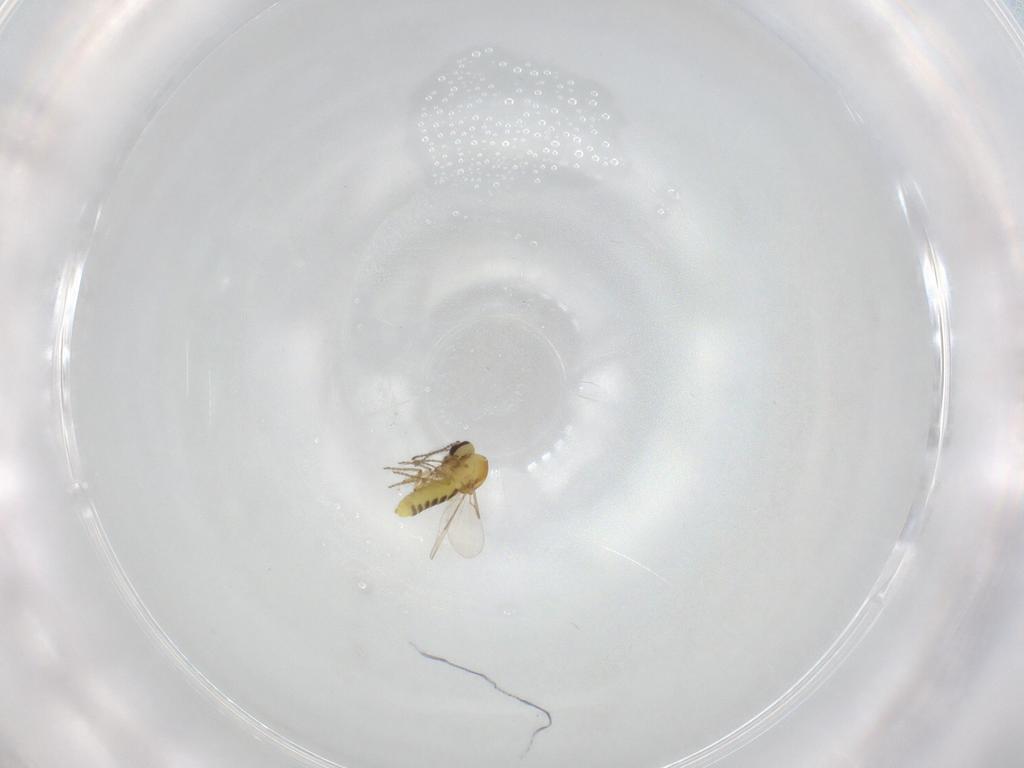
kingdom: Animalia
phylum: Arthropoda
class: Insecta
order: Diptera
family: Ceratopogonidae
